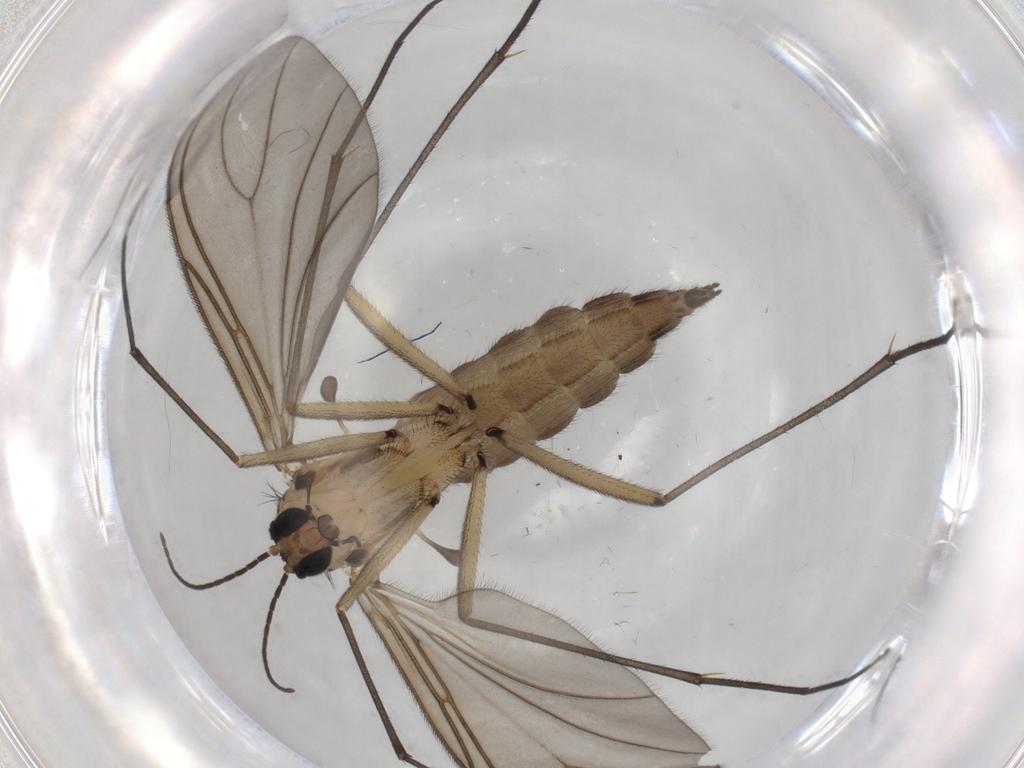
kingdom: Animalia
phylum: Arthropoda
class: Insecta
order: Diptera
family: Sciaridae
